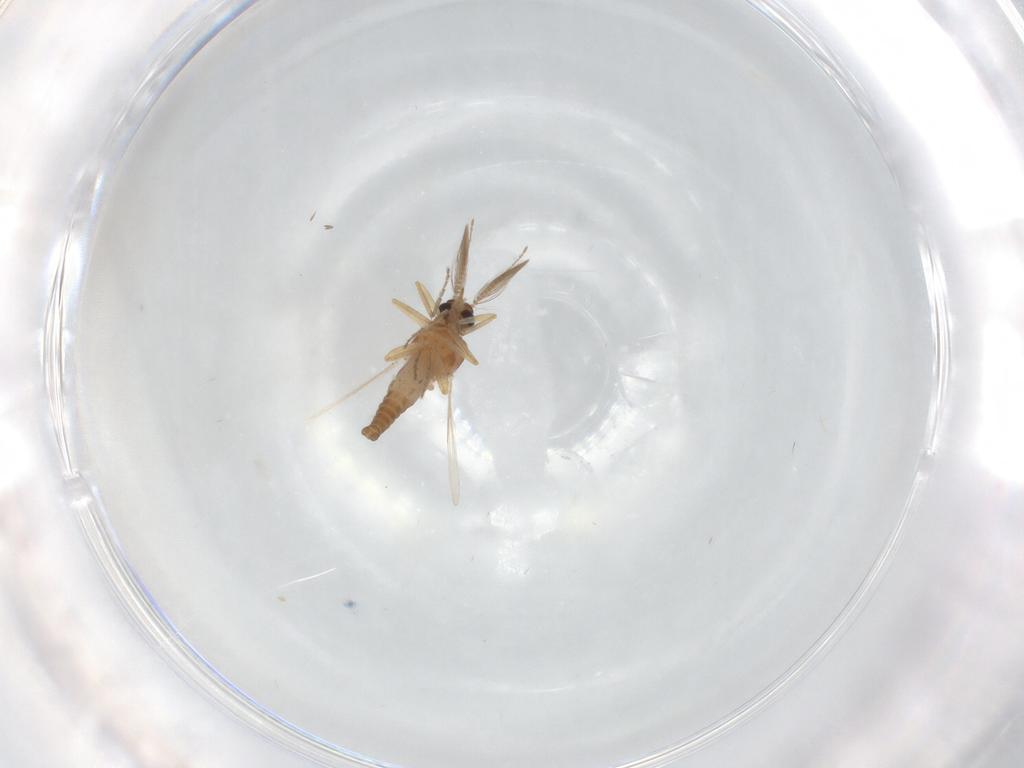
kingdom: Animalia
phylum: Arthropoda
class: Insecta
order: Diptera
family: Ceratopogonidae
